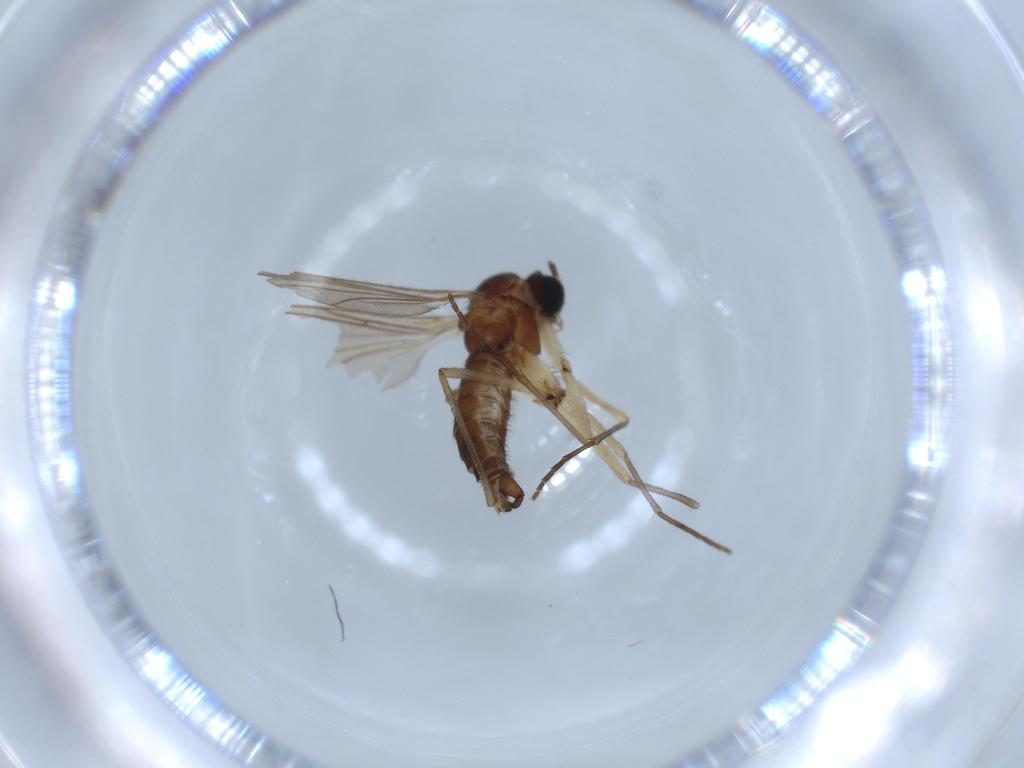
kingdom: Animalia
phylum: Arthropoda
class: Insecta
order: Diptera
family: Sciaridae
